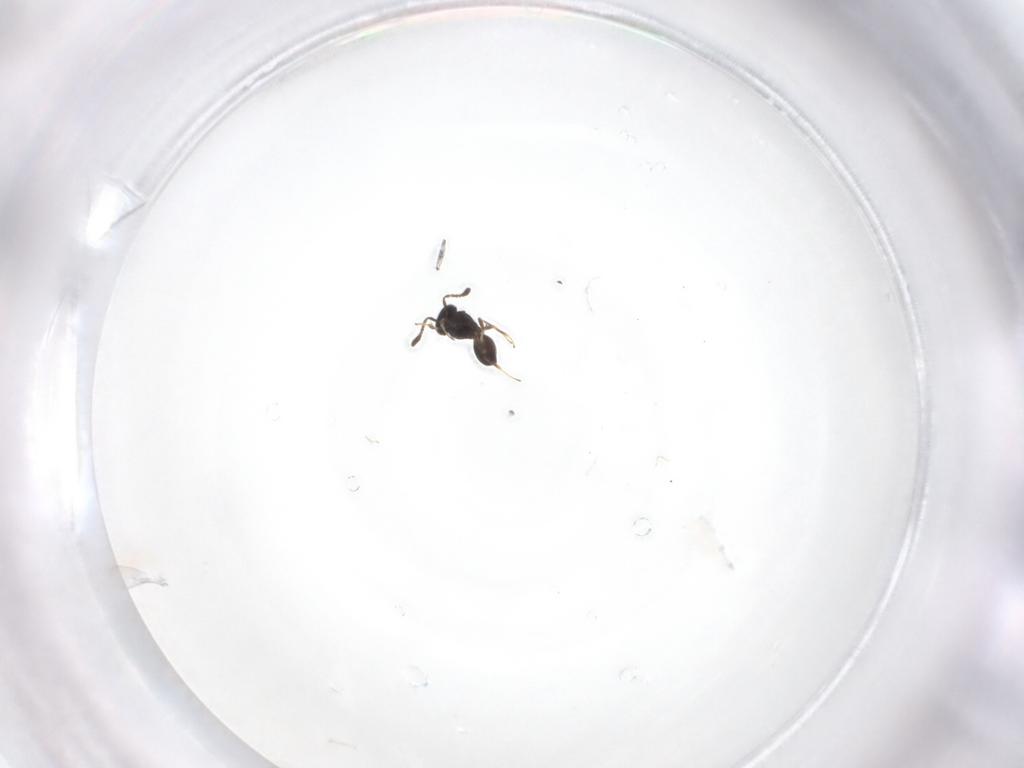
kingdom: Animalia
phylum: Arthropoda
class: Insecta
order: Hymenoptera
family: Scelionidae
